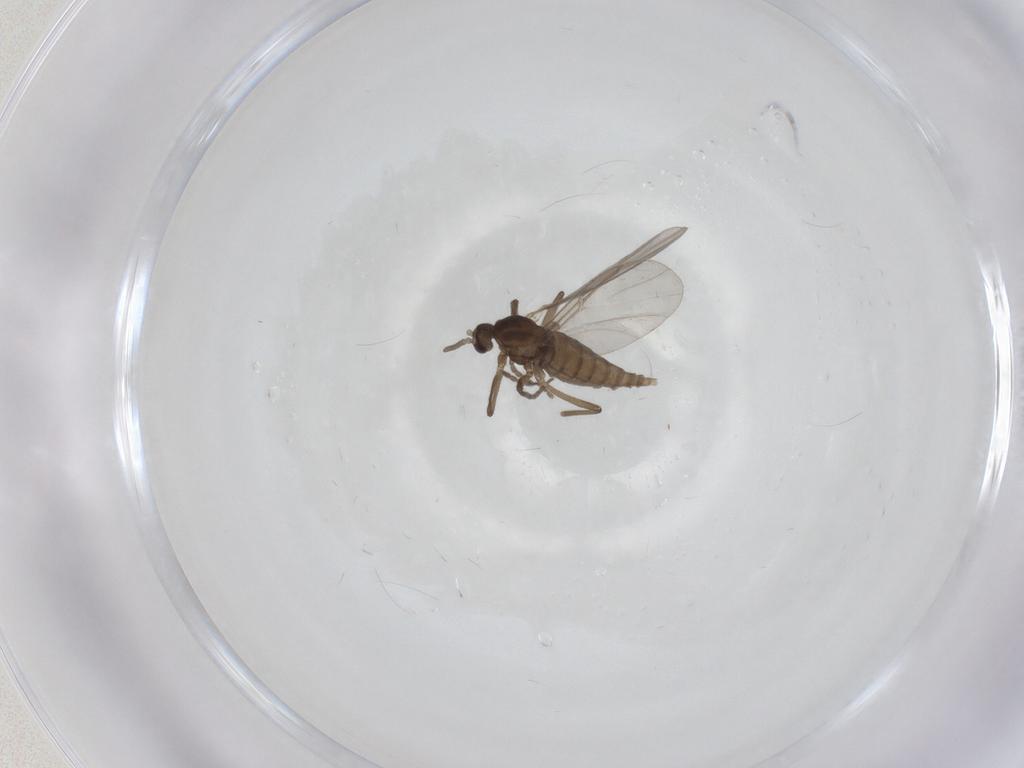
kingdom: Animalia
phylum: Arthropoda
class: Insecta
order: Diptera
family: Cecidomyiidae
